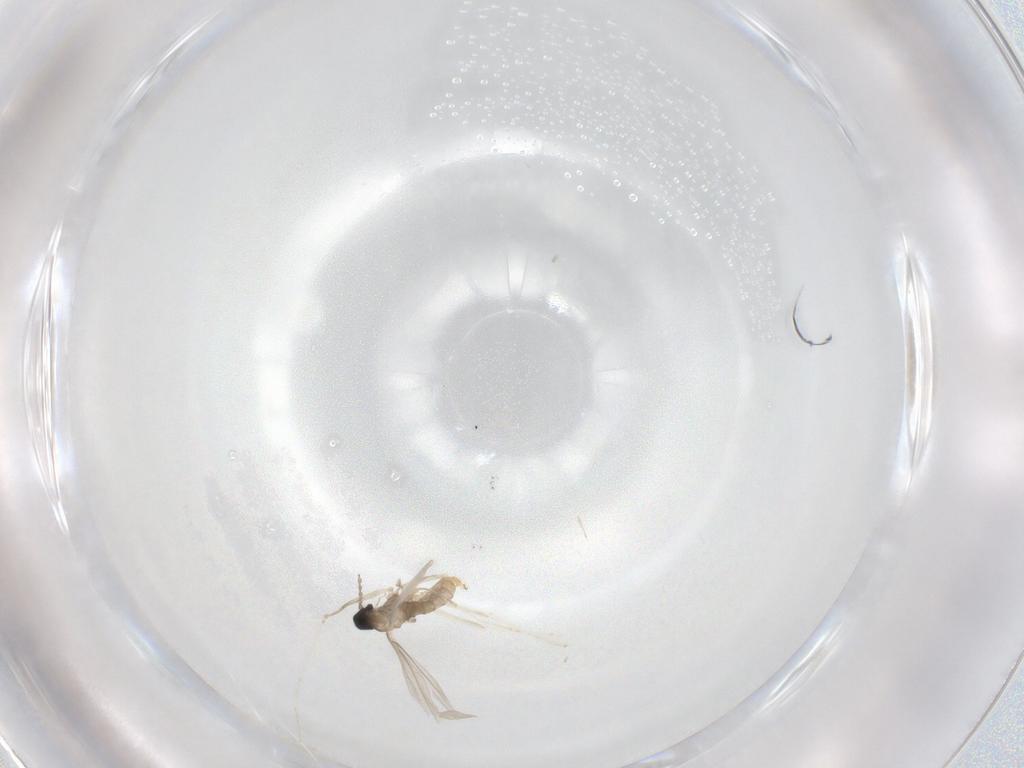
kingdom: Animalia
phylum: Arthropoda
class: Insecta
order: Diptera
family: Cecidomyiidae
